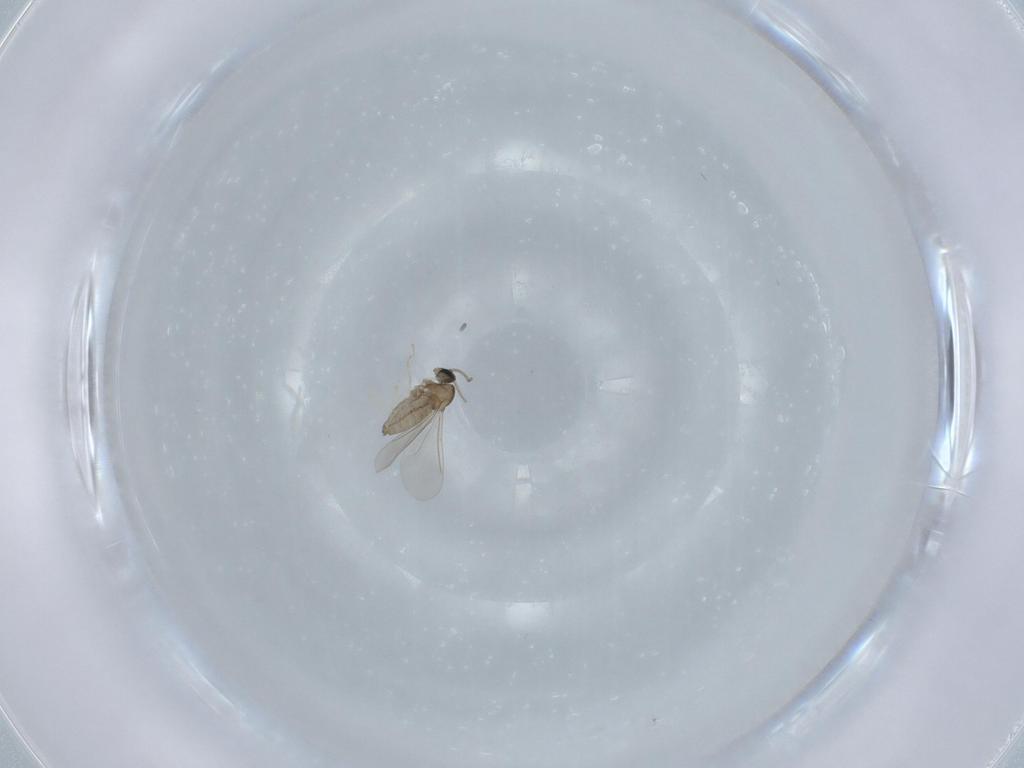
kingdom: Animalia
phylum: Arthropoda
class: Insecta
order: Diptera
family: Cecidomyiidae
